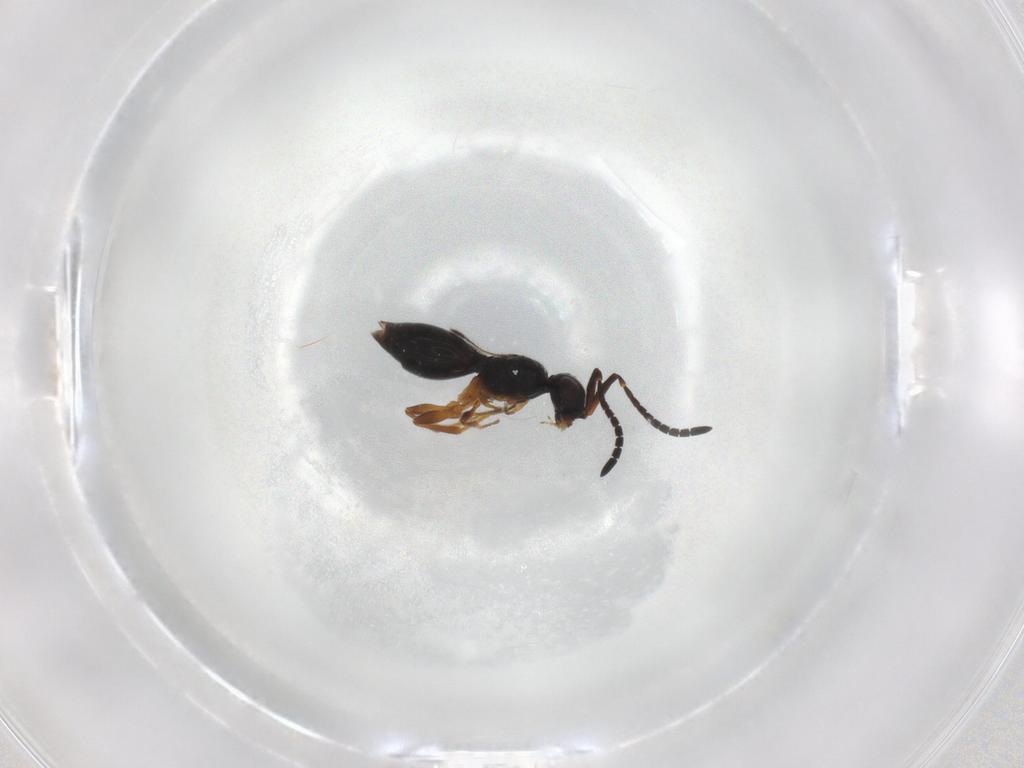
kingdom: Animalia
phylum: Arthropoda
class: Insecta
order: Hymenoptera
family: Megaspilidae
